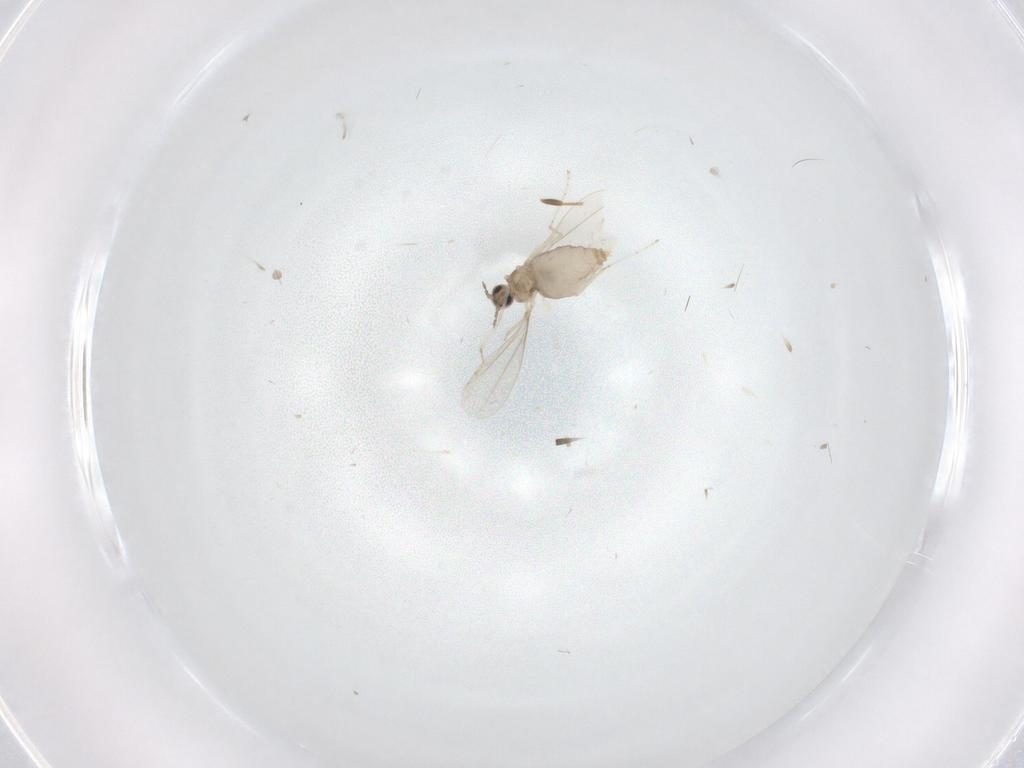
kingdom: Animalia
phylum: Arthropoda
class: Insecta
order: Diptera
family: Cecidomyiidae
